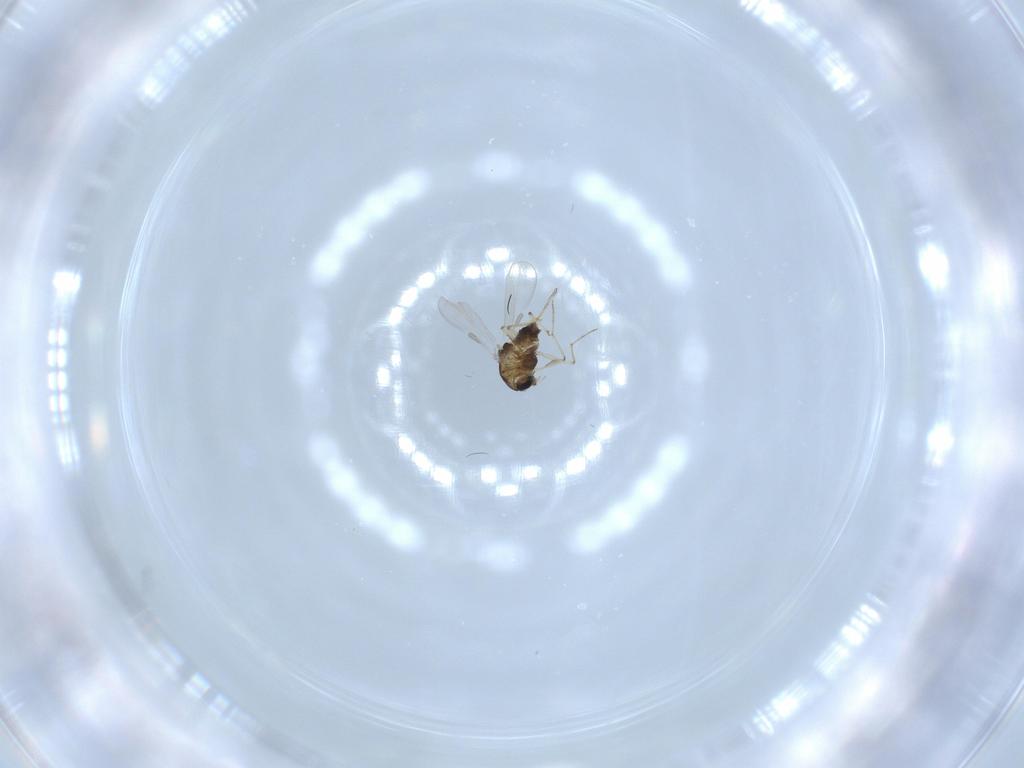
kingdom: Animalia
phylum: Arthropoda
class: Insecta
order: Diptera
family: Chironomidae
